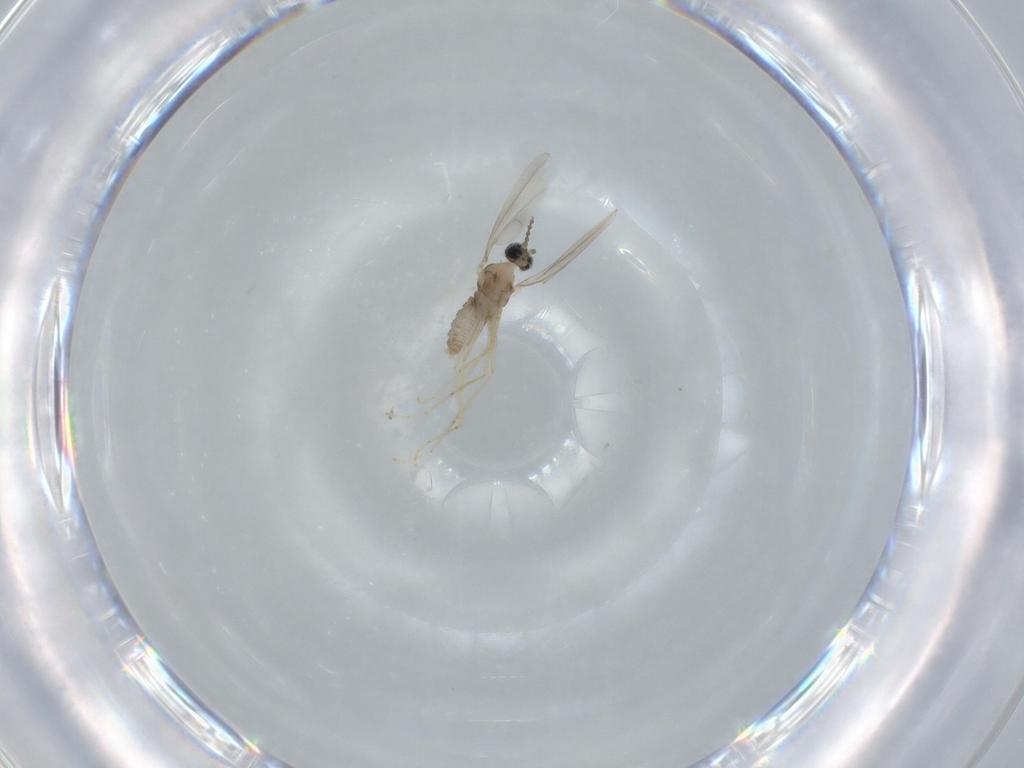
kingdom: Animalia
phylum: Arthropoda
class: Insecta
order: Diptera
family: Cecidomyiidae
